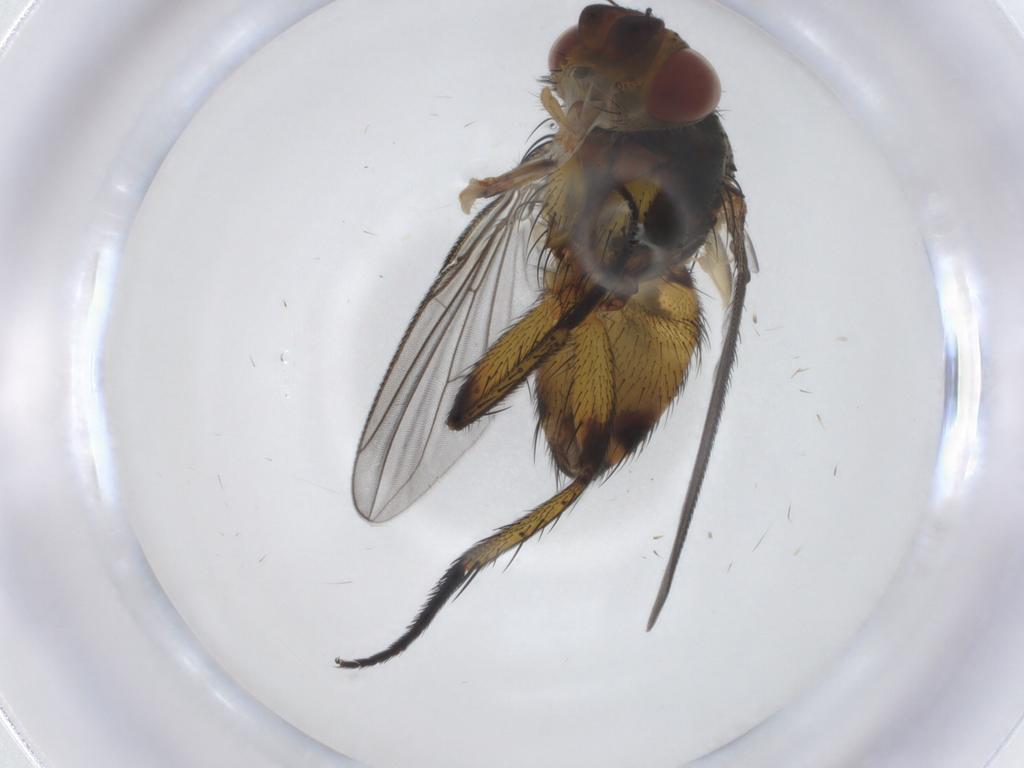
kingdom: Animalia
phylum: Arthropoda
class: Insecta
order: Diptera
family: Tachinidae
